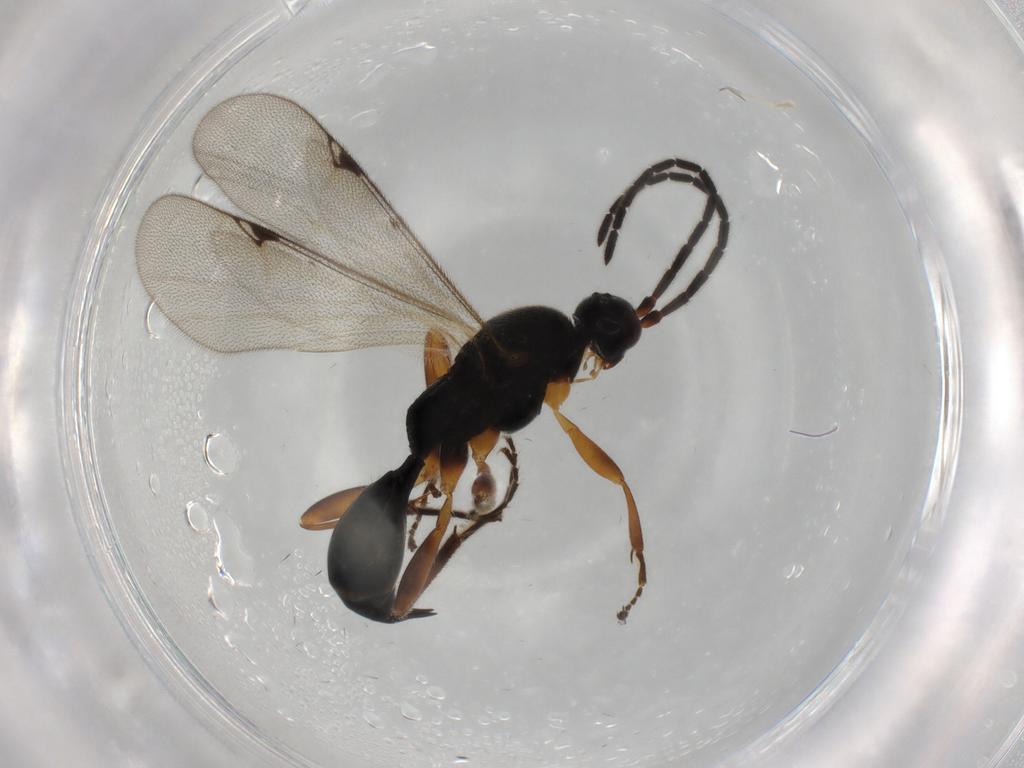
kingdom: Animalia
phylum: Arthropoda
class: Insecta
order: Hymenoptera
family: Proctotrupidae
